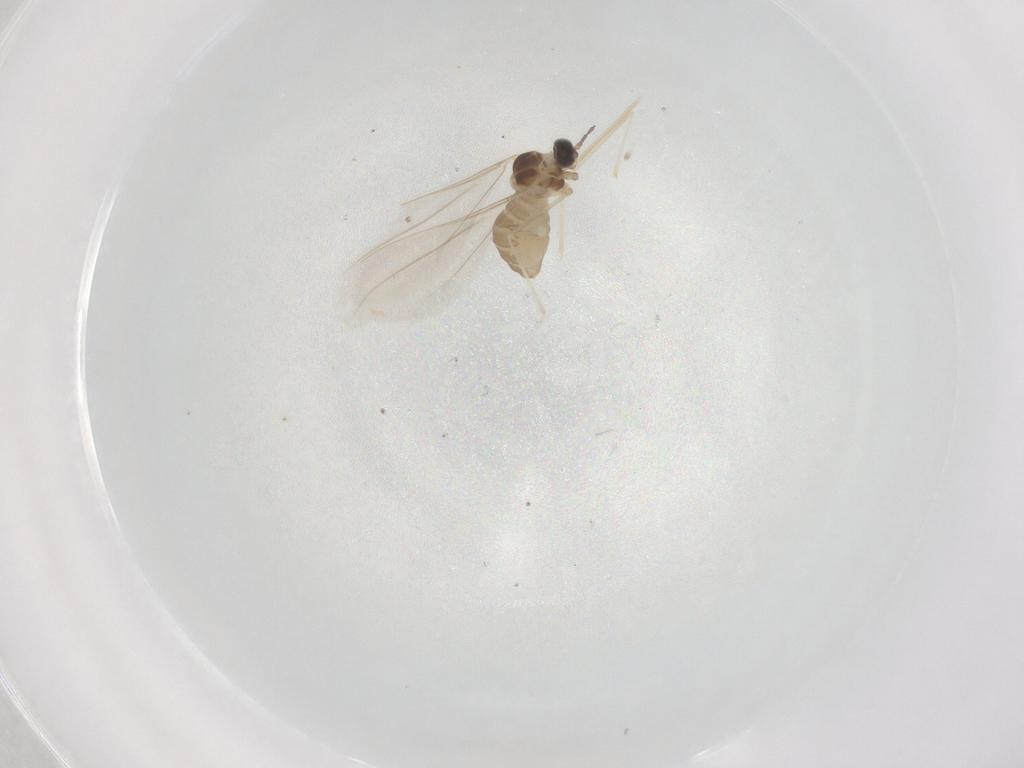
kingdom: Animalia
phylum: Arthropoda
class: Insecta
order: Diptera
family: Cecidomyiidae
